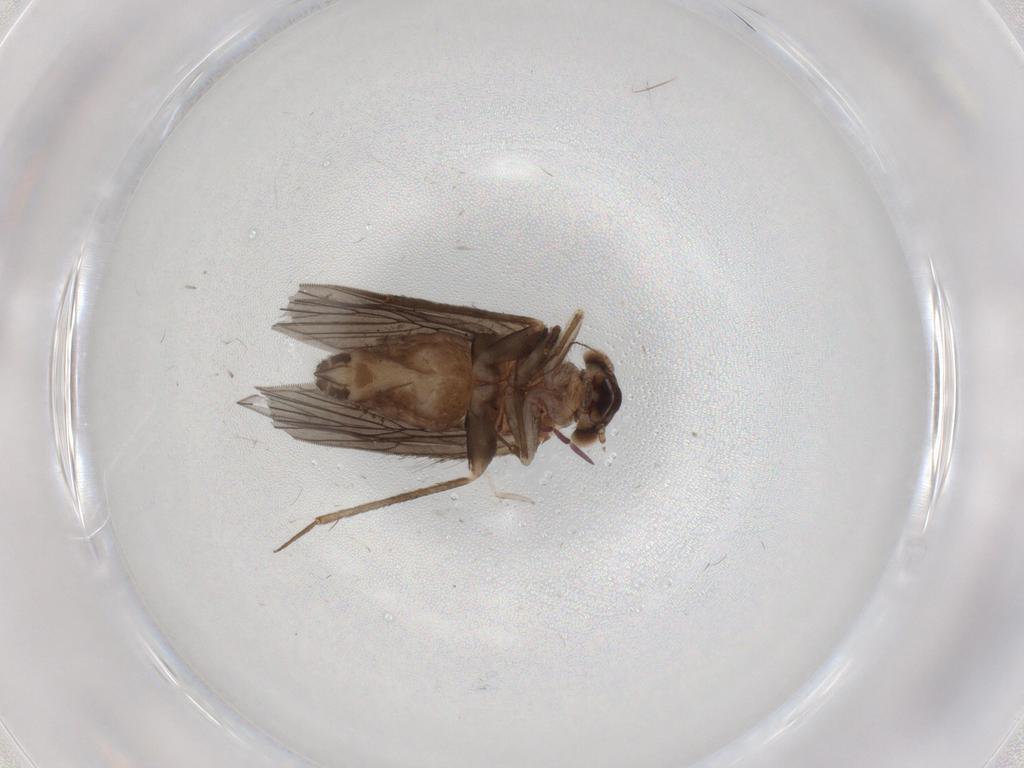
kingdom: Animalia
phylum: Arthropoda
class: Insecta
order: Psocodea
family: Lepidopsocidae
